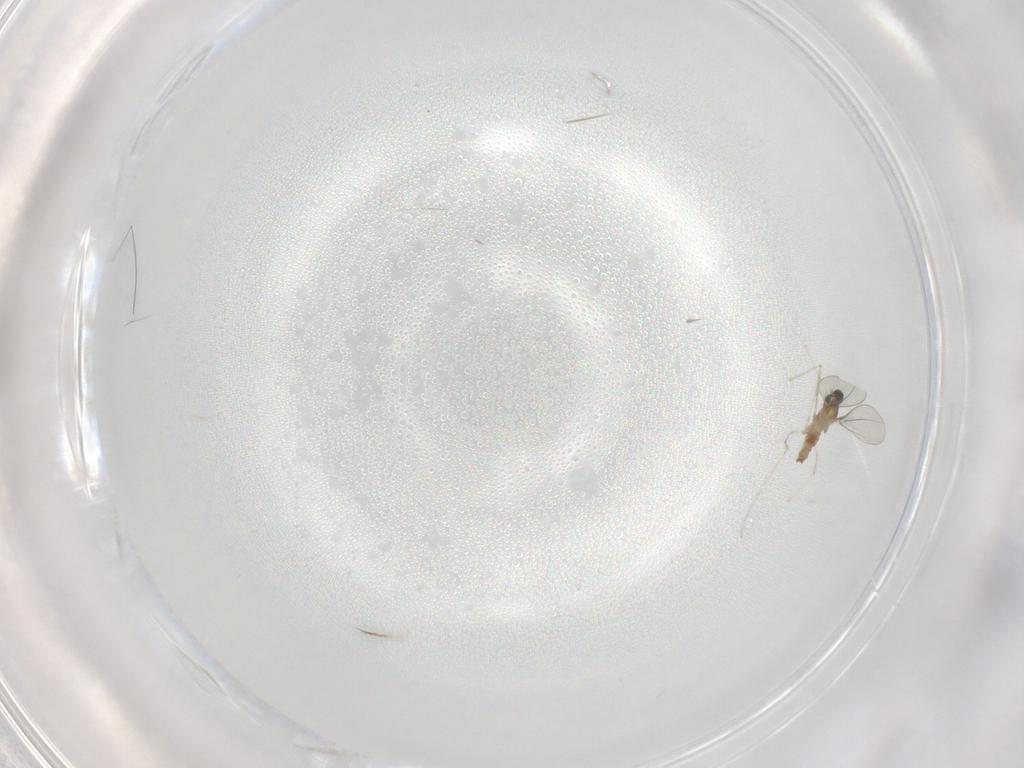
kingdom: Animalia
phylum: Arthropoda
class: Insecta
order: Diptera
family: Cecidomyiidae
